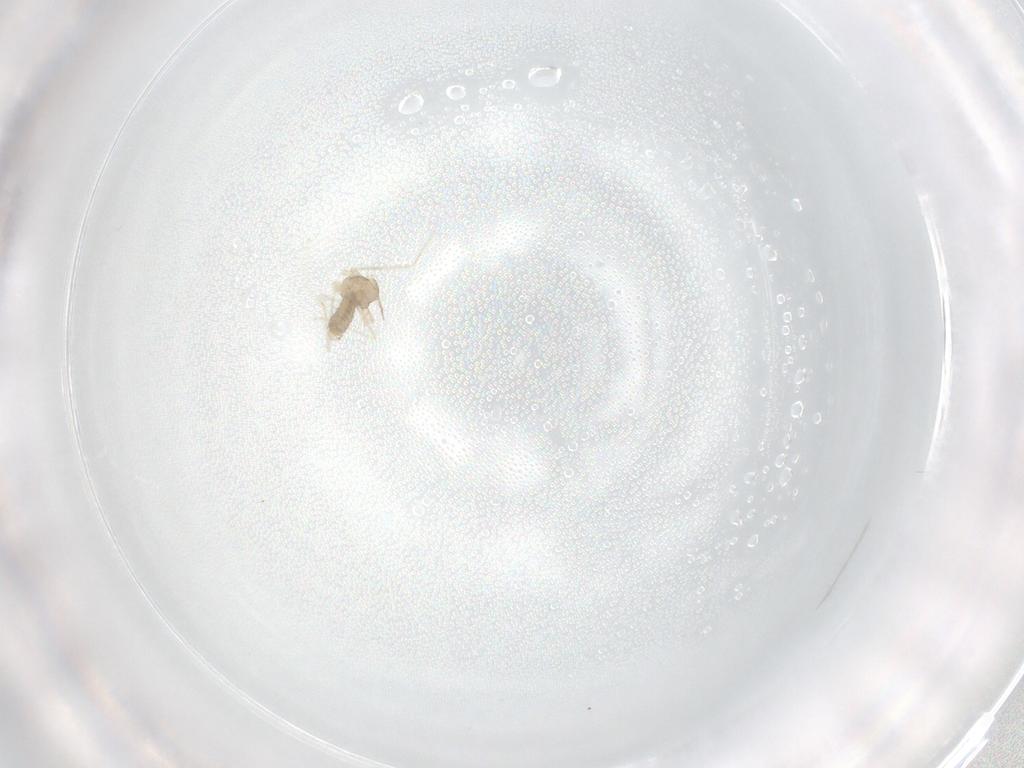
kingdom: Animalia
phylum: Arthropoda
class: Insecta
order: Diptera
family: Cecidomyiidae
